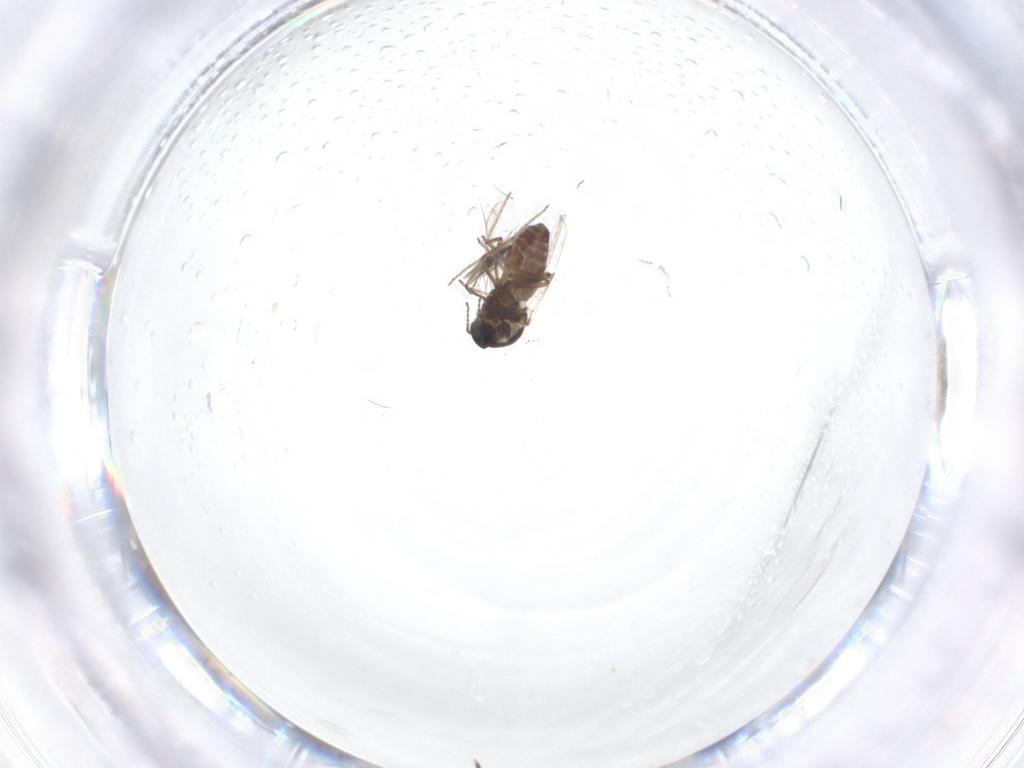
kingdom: Animalia
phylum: Arthropoda
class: Insecta
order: Diptera
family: Ceratopogonidae
